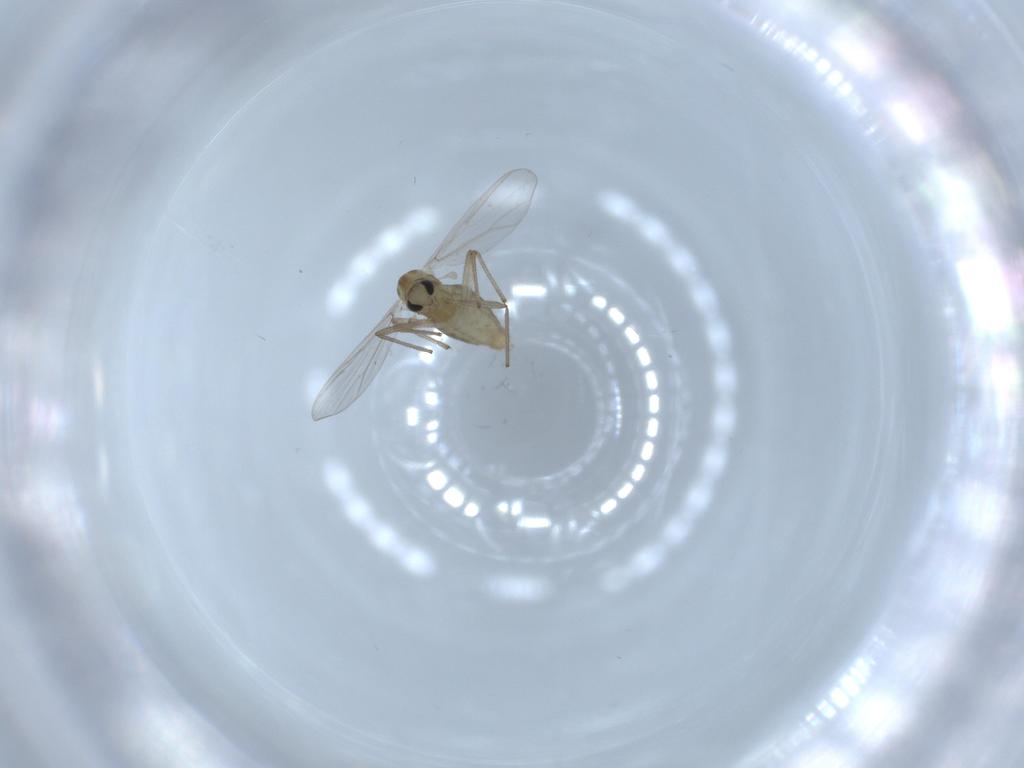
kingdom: Animalia
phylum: Arthropoda
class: Insecta
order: Diptera
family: Chironomidae
